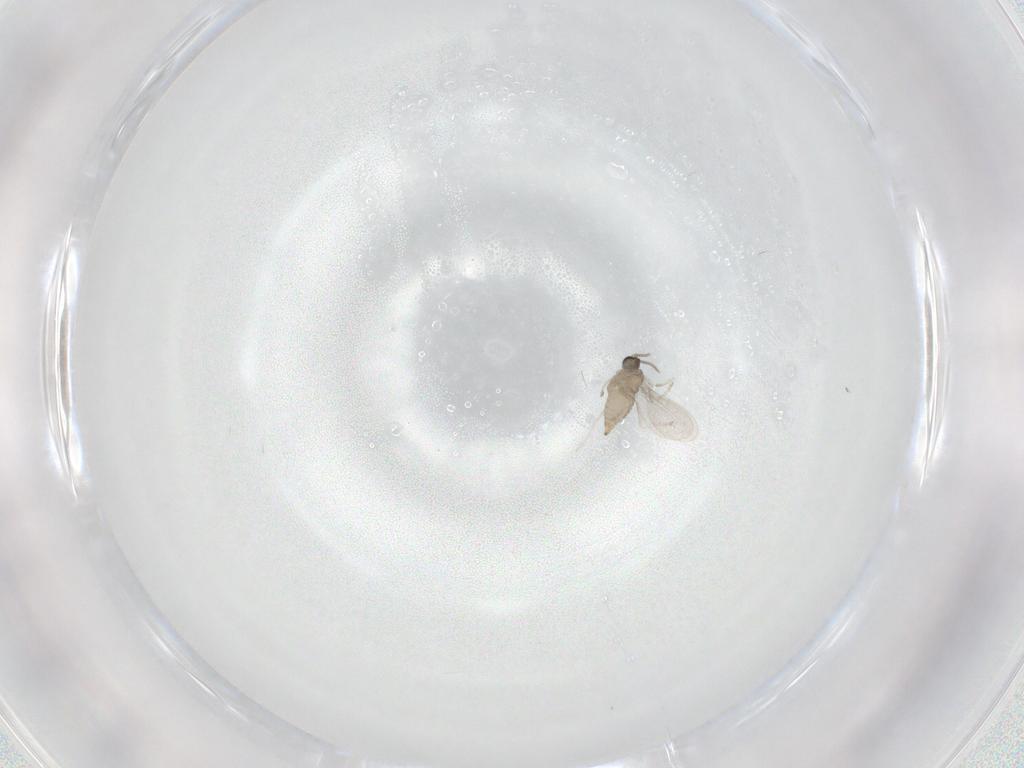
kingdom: Animalia
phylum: Arthropoda
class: Insecta
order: Diptera
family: Cecidomyiidae
